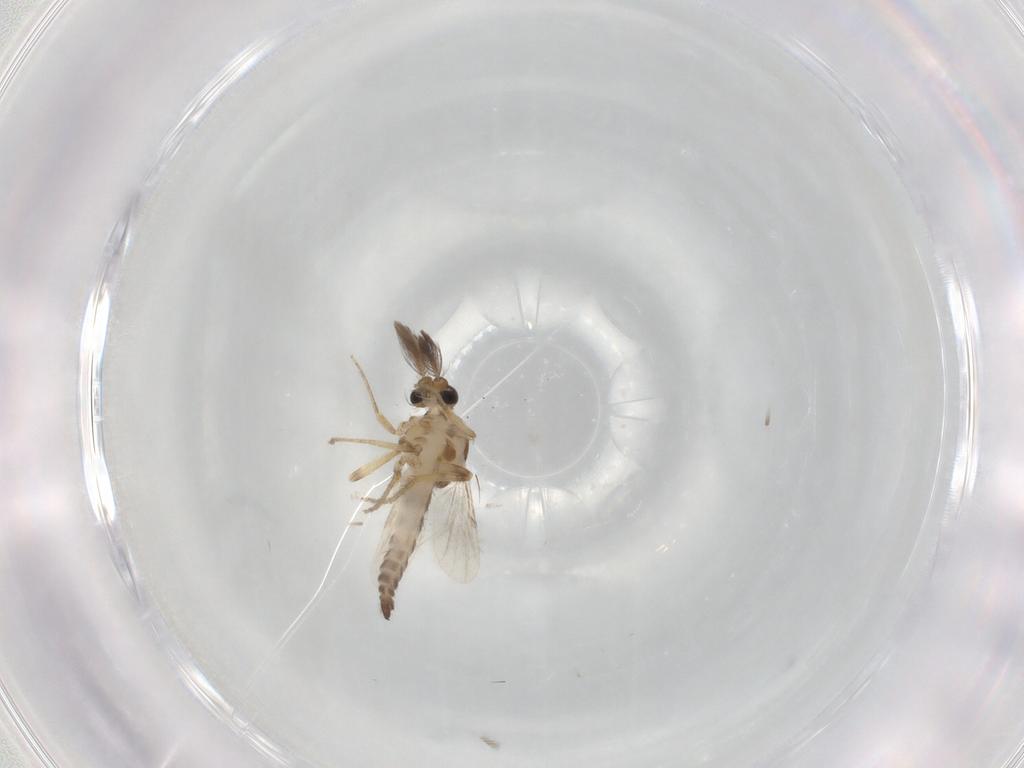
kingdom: Animalia
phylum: Arthropoda
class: Insecta
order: Diptera
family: Ceratopogonidae
